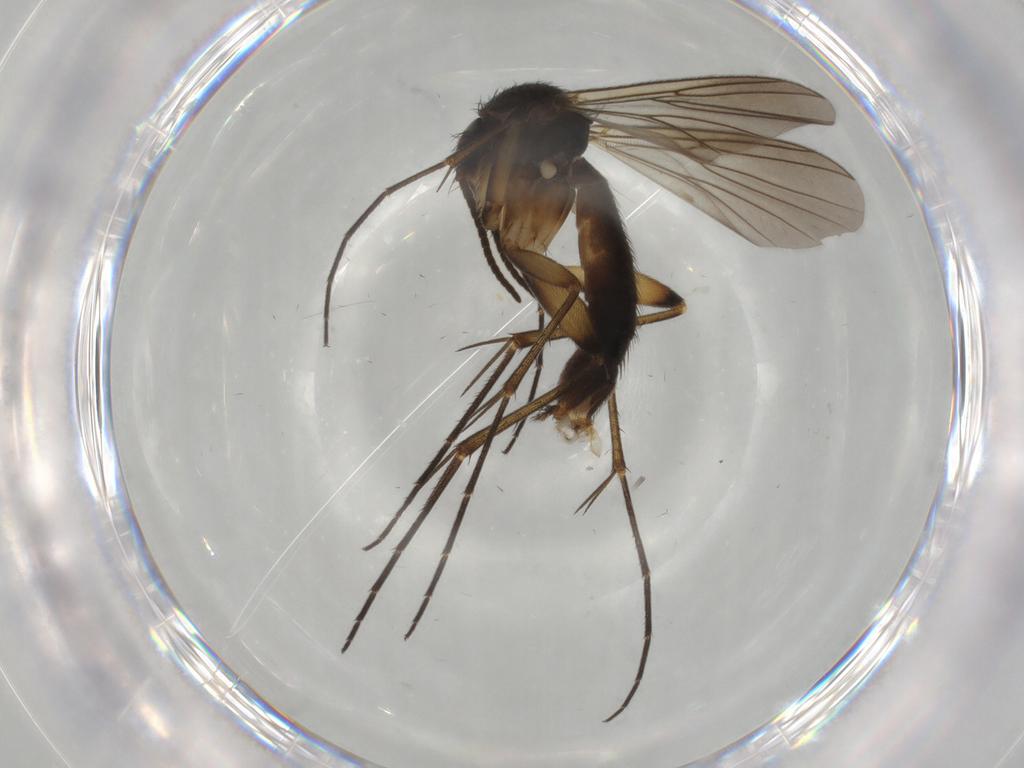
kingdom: Animalia
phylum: Arthropoda
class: Insecta
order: Diptera
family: Mycetophilidae
